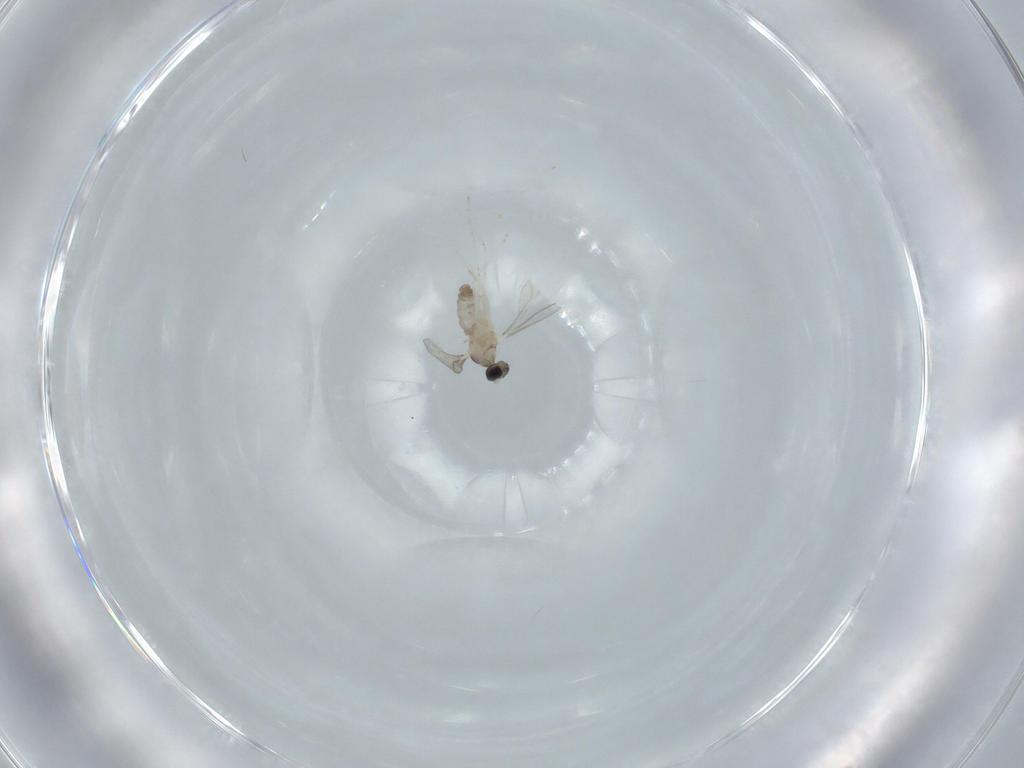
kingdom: Animalia
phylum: Arthropoda
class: Insecta
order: Diptera
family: Cecidomyiidae
